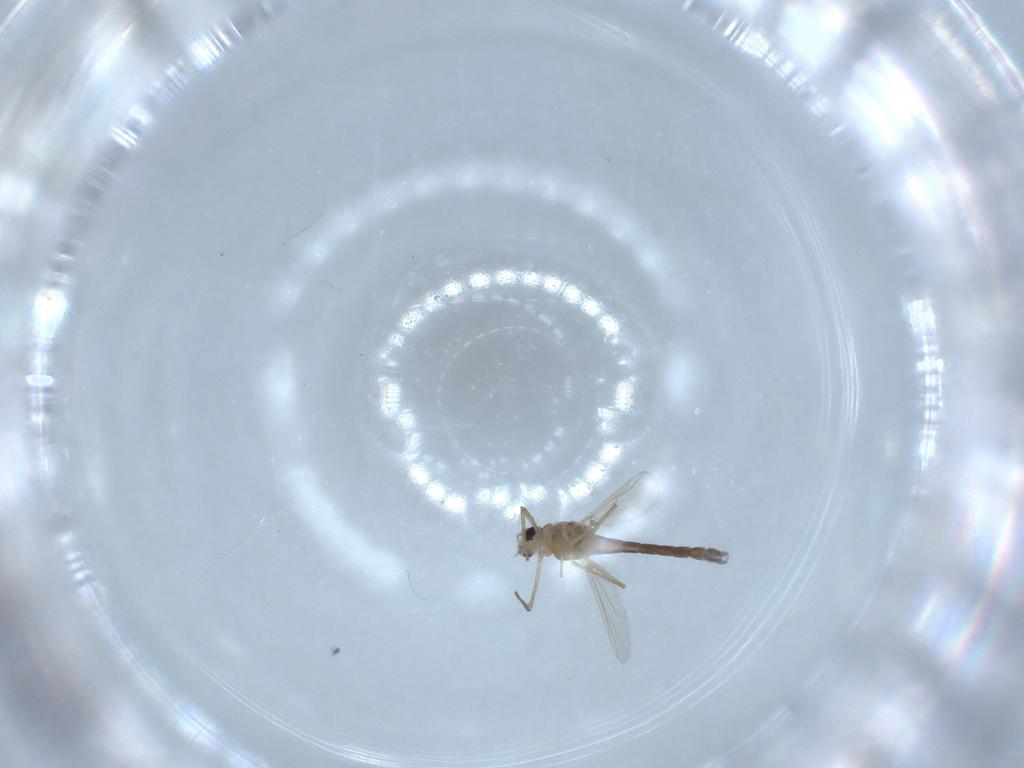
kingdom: Animalia
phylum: Arthropoda
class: Insecta
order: Diptera
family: Chironomidae
